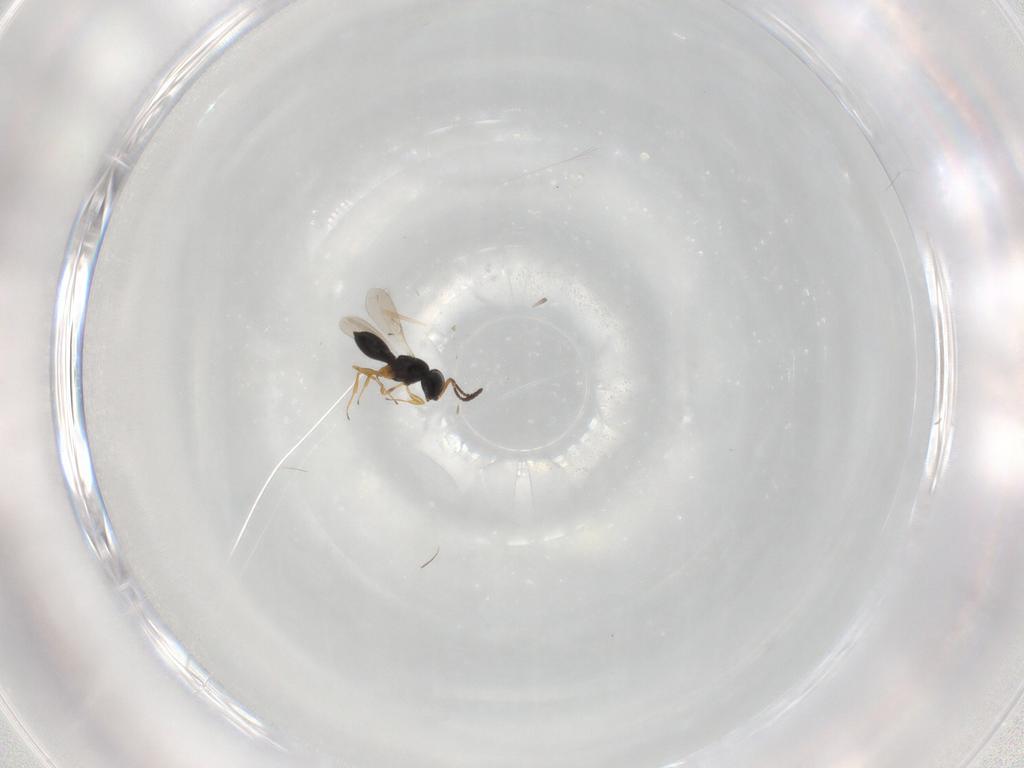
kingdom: Animalia
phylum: Arthropoda
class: Insecta
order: Hymenoptera
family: Scelionidae
